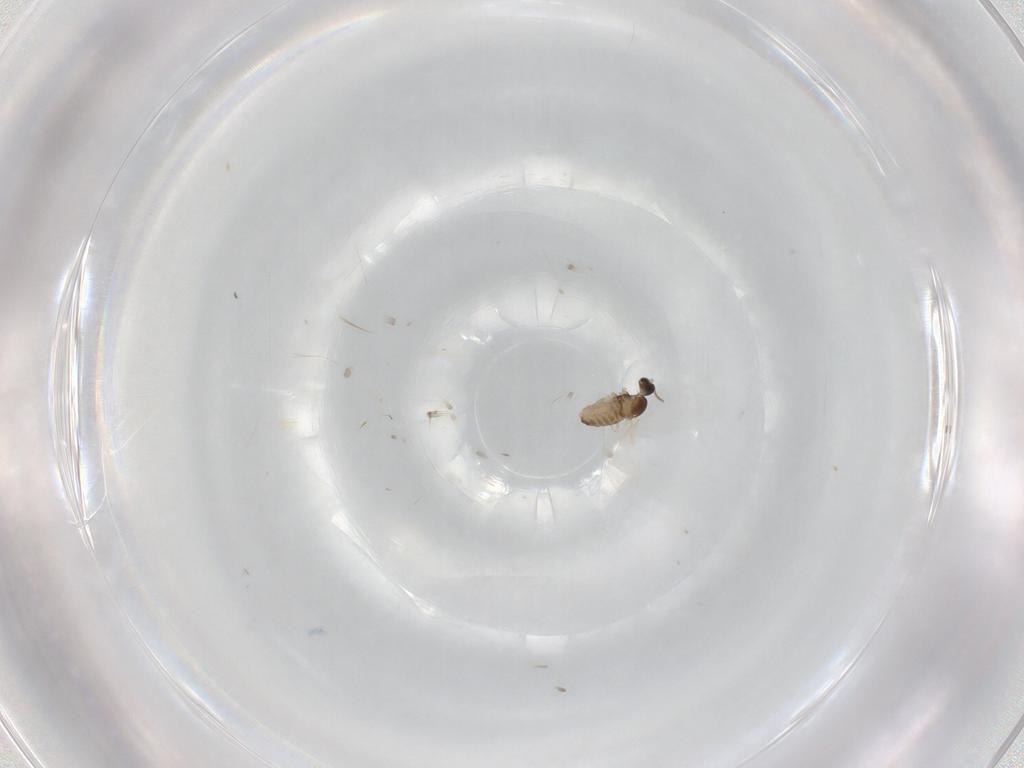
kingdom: Animalia
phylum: Arthropoda
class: Insecta
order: Diptera
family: Cecidomyiidae
